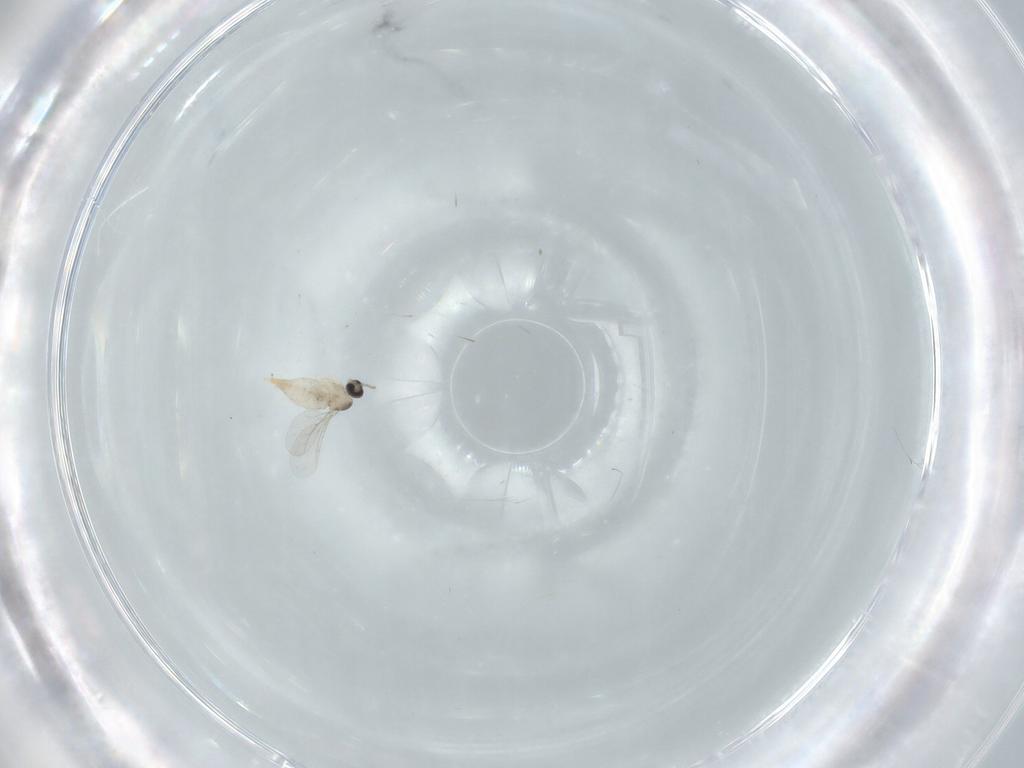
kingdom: Animalia
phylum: Arthropoda
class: Insecta
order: Diptera
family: Cecidomyiidae
